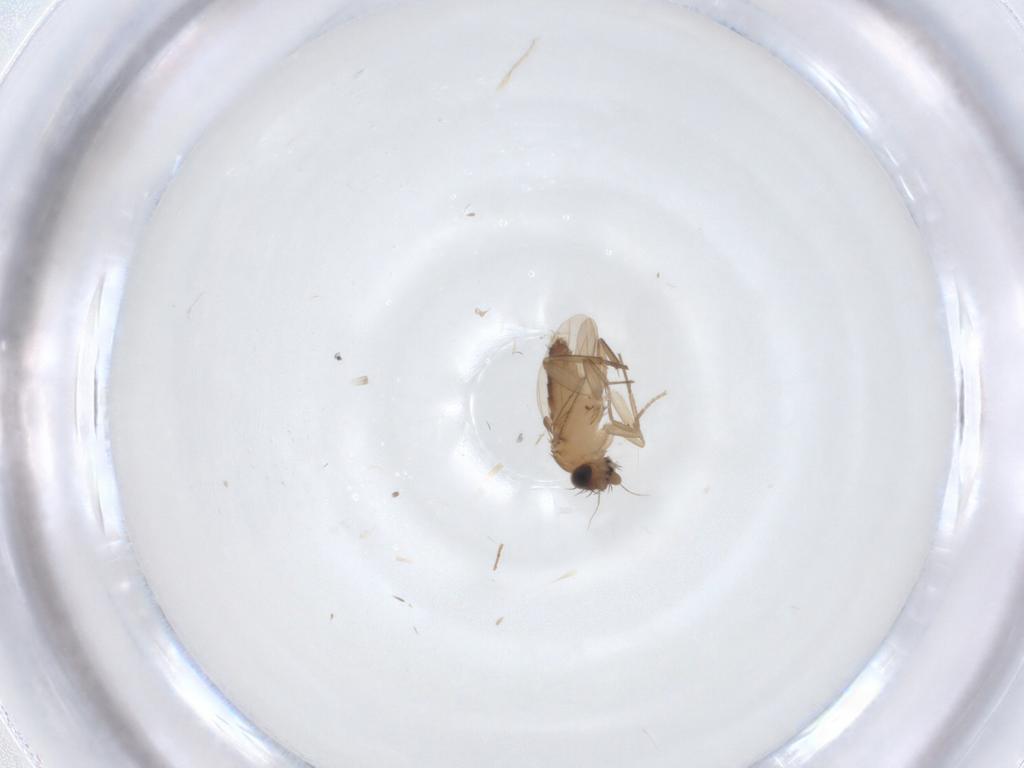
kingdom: Animalia
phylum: Arthropoda
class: Insecta
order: Diptera
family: Phoridae
